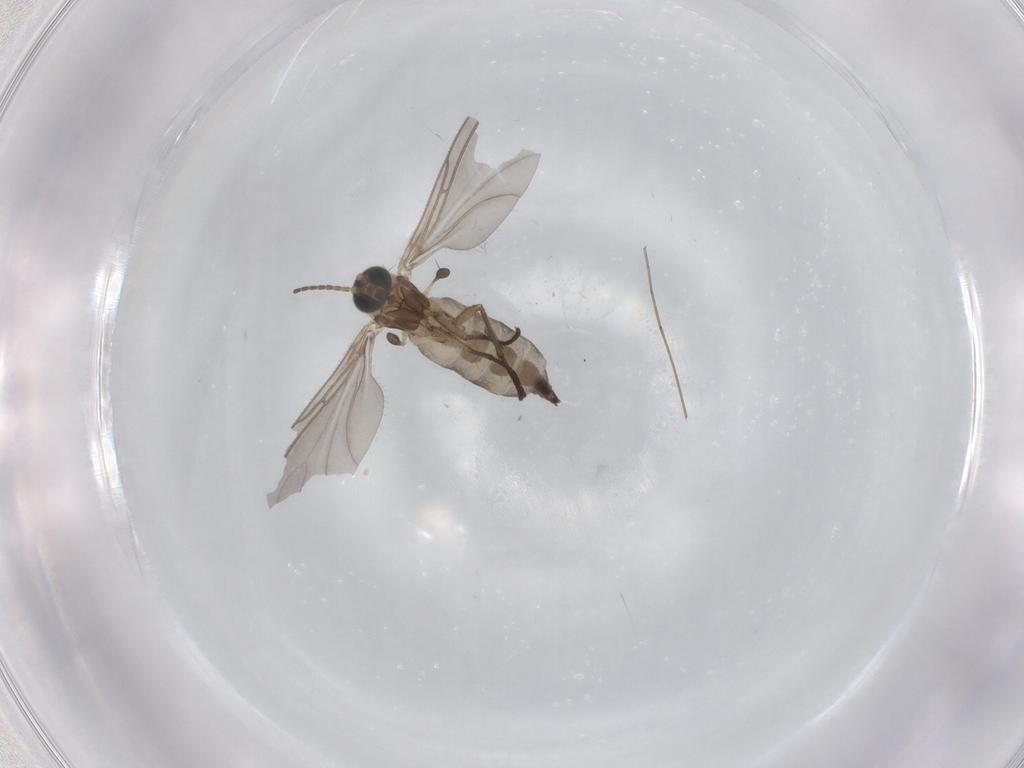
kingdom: Animalia
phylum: Arthropoda
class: Insecta
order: Diptera
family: Sciaridae
